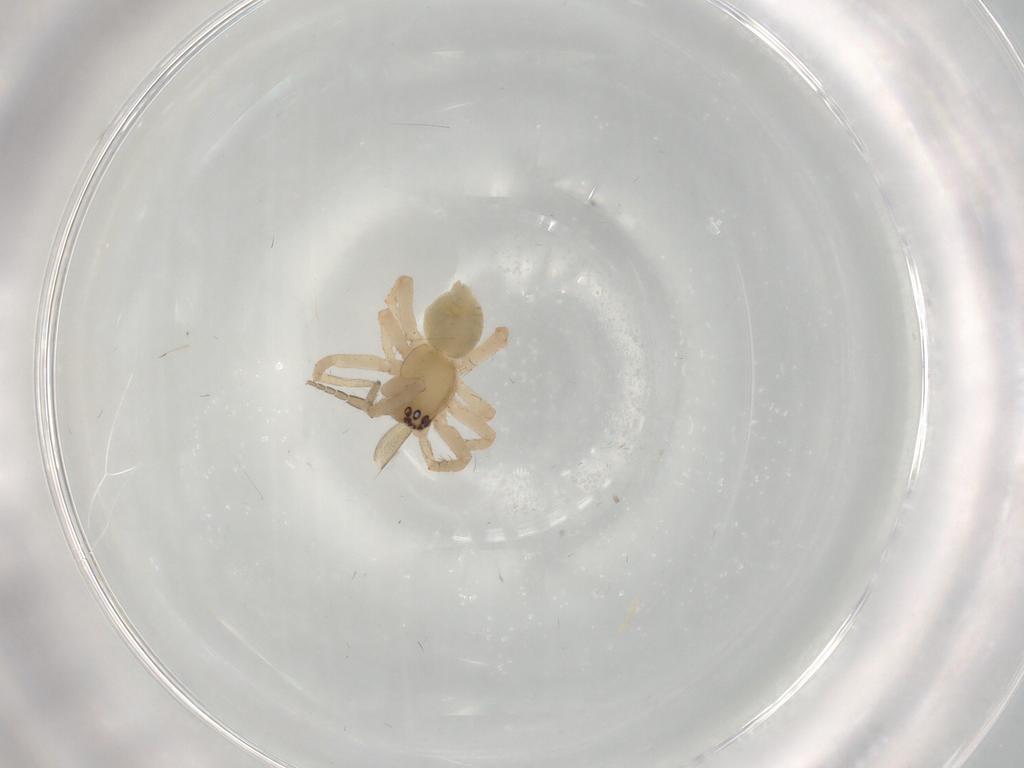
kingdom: Animalia
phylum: Arthropoda
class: Arachnida
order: Araneae
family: Anyphaenidae
